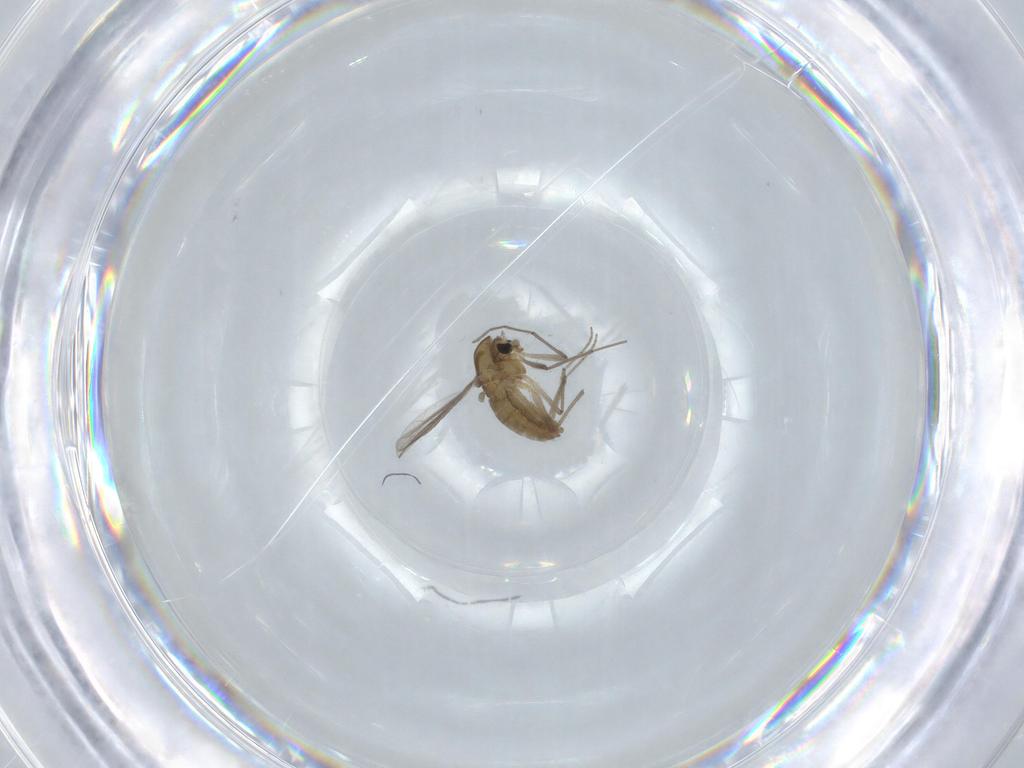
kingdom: Animalia
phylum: Arthropoda
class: Insecta
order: Diptera
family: Chironomidae
